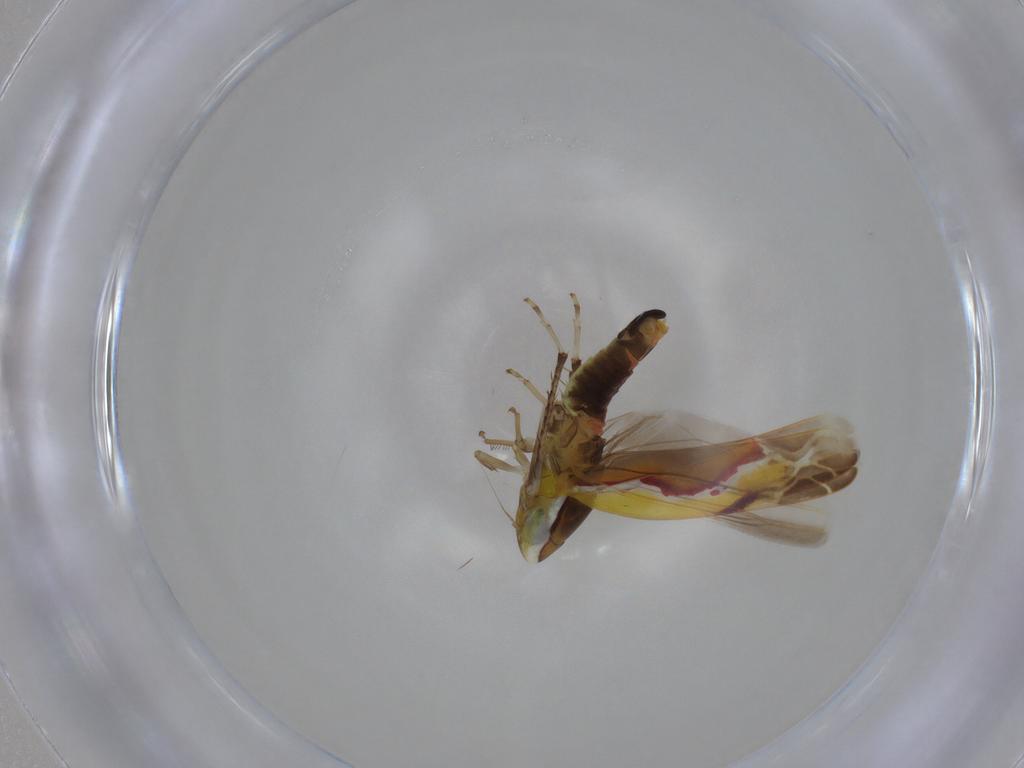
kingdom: Animalia
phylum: Arthropoda
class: Insecta
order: Hemiptera
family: Cicadellidae
